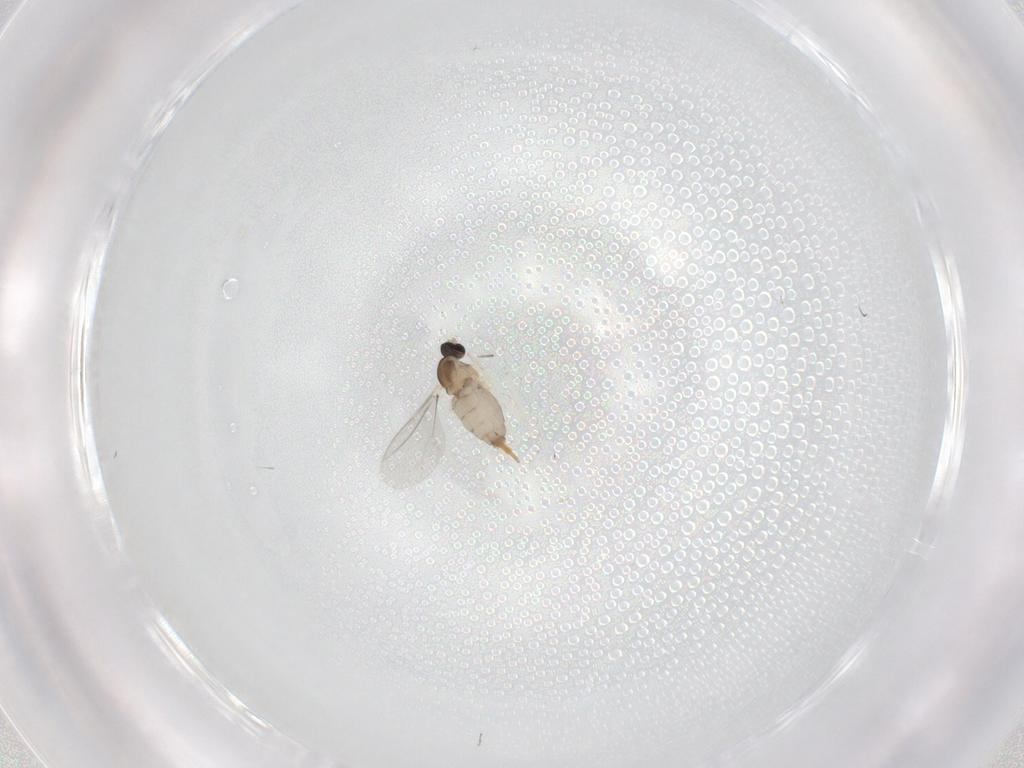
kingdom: Animalia
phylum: Arthropoda
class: Insecta
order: Diptera
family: Cecidomyiidae
